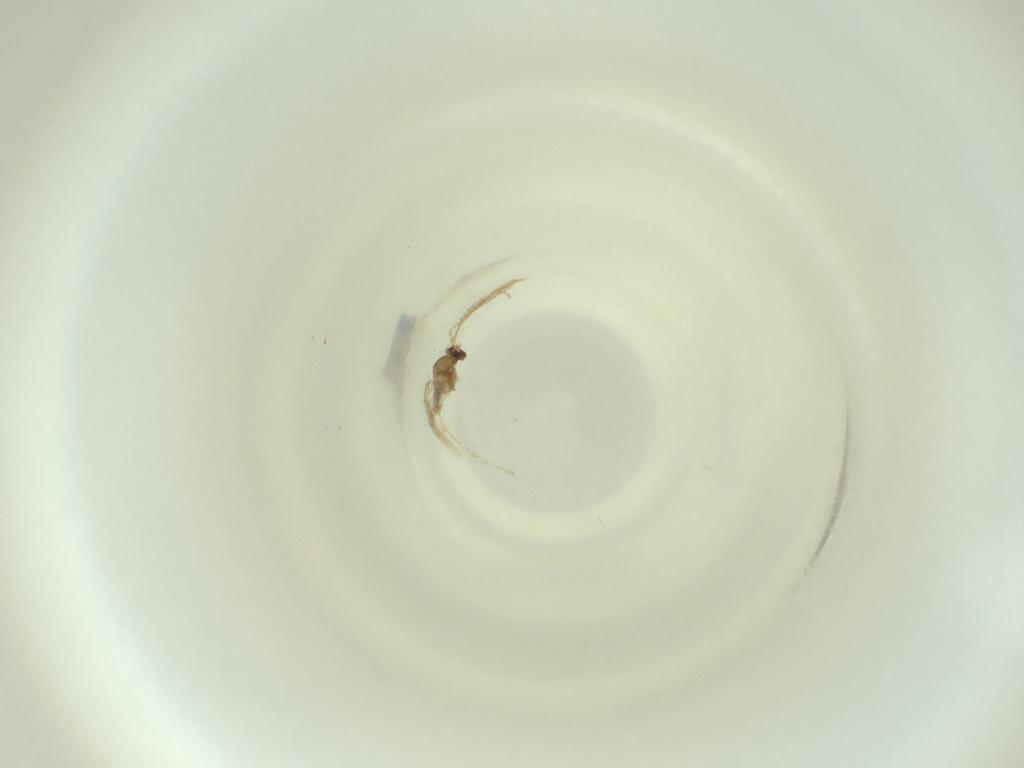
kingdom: Animalia
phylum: Arthropoda
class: Insecta
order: Diptera
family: Cecidomyiidae
